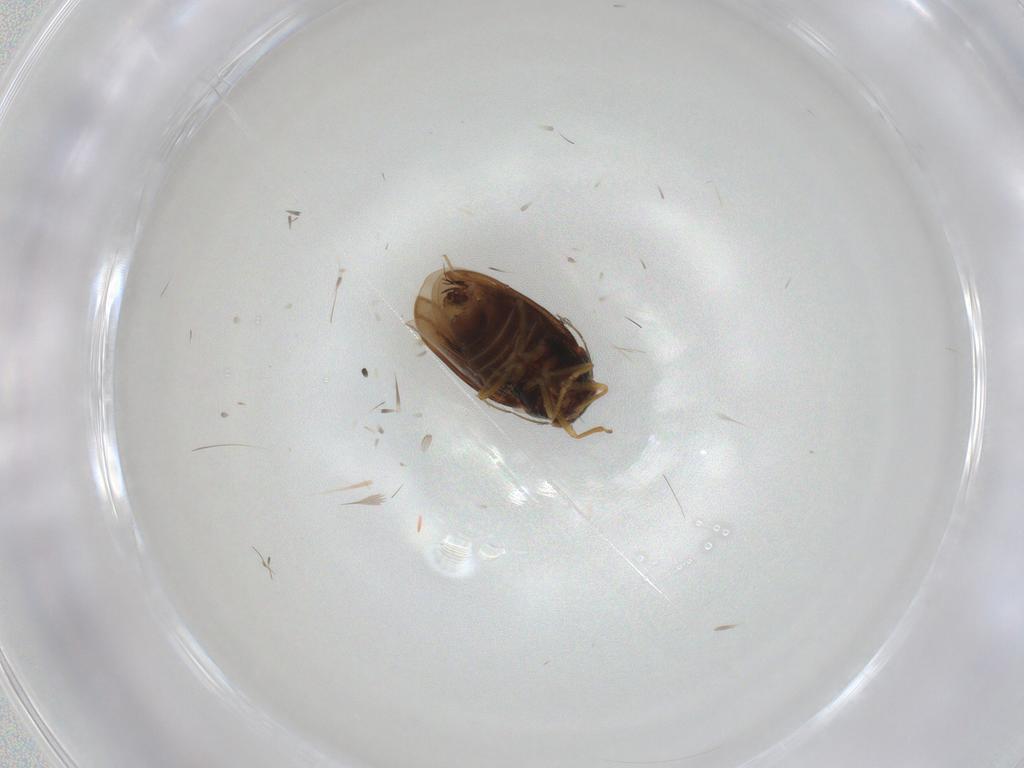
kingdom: Animalia
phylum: Arthropoda
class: Insecta
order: Hemiptera
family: Schizopteridae
